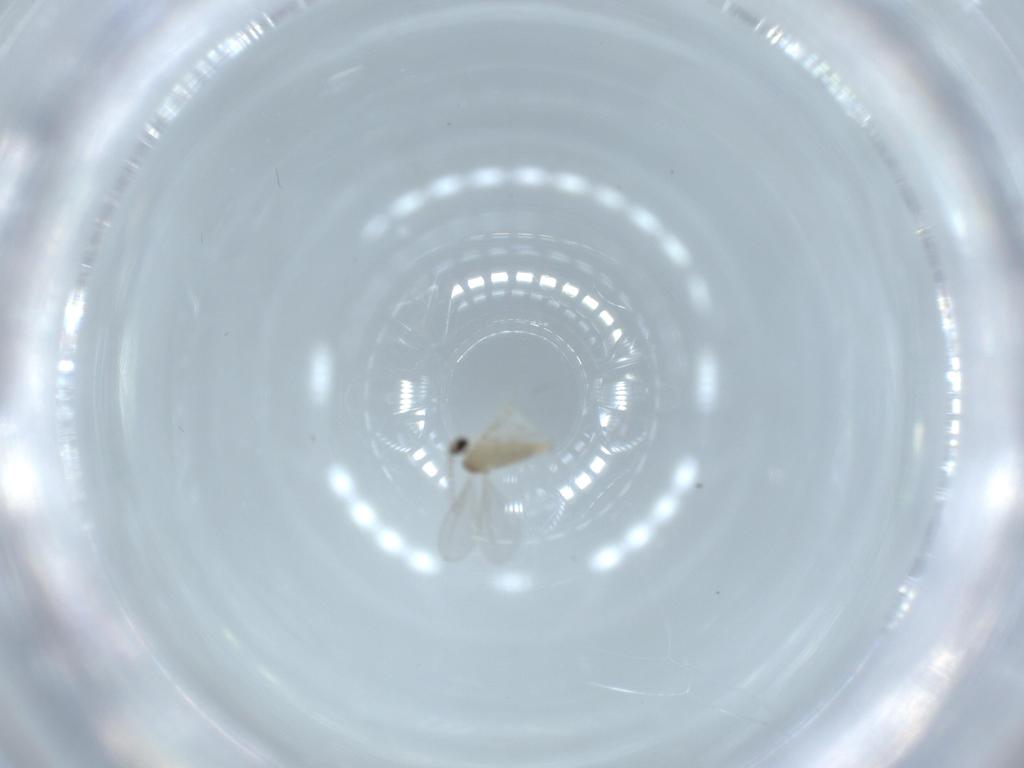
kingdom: Animalia
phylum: Arthropoda
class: Insecta
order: Diptera
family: Cecidomyiidae
